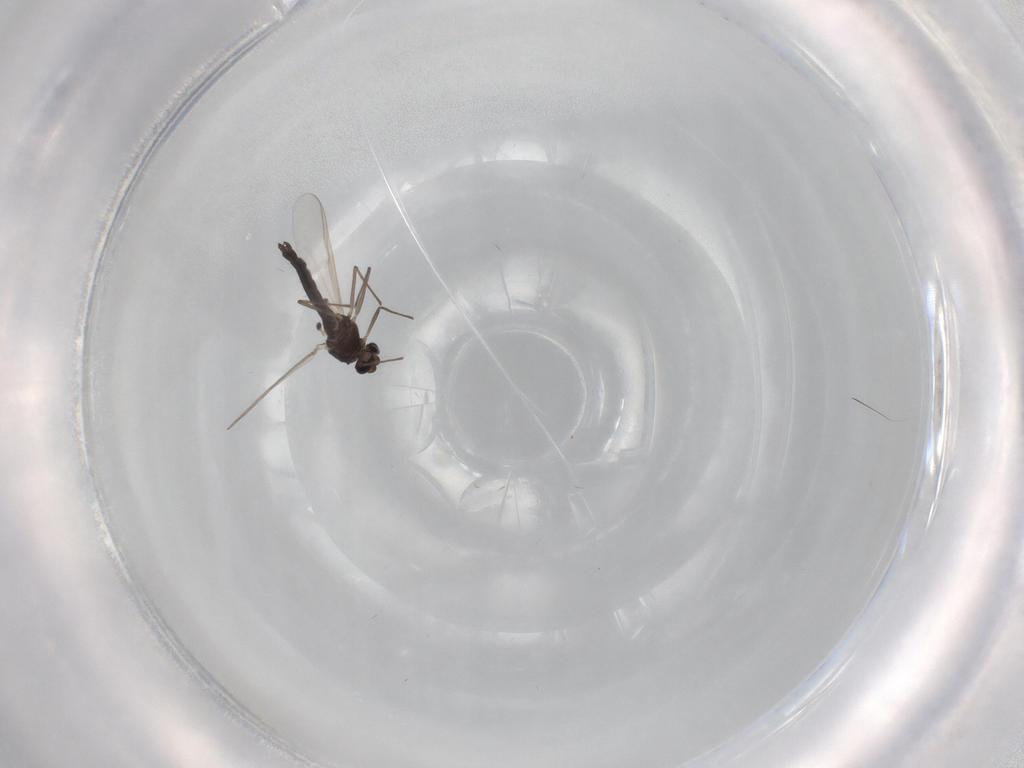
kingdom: Animalia
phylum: Arthropoda
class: Insecta
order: Diptera
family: Chironomidae
